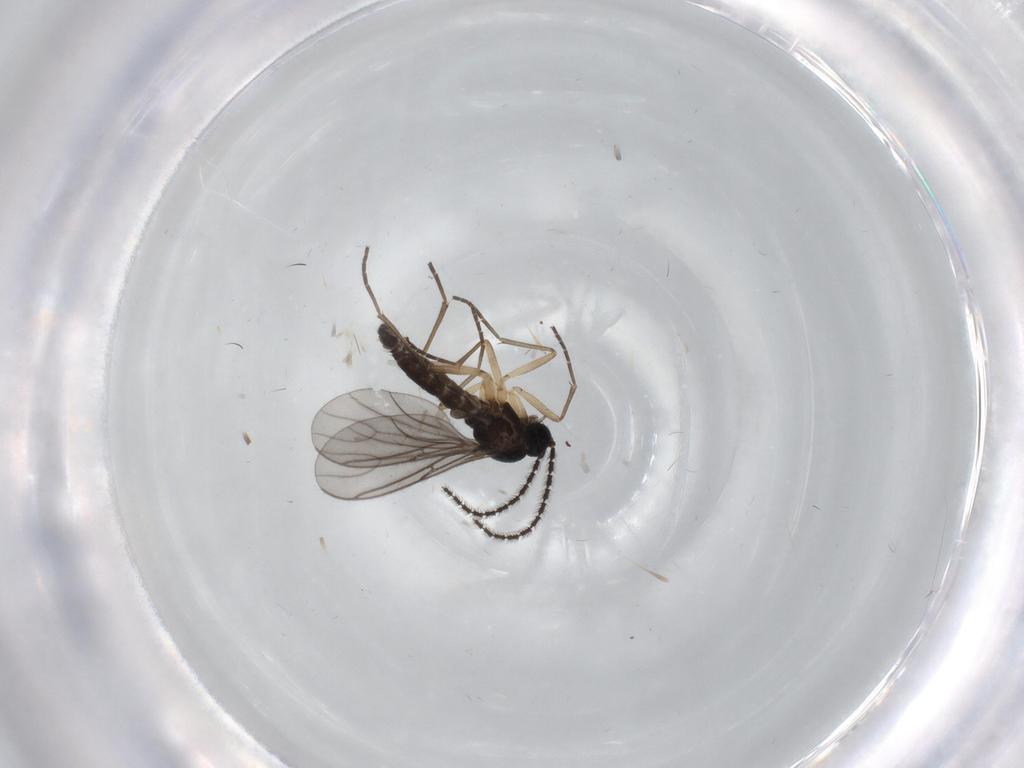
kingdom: Animalia
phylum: Arthropoda
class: Insecta
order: Diptera
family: Sciaridae
